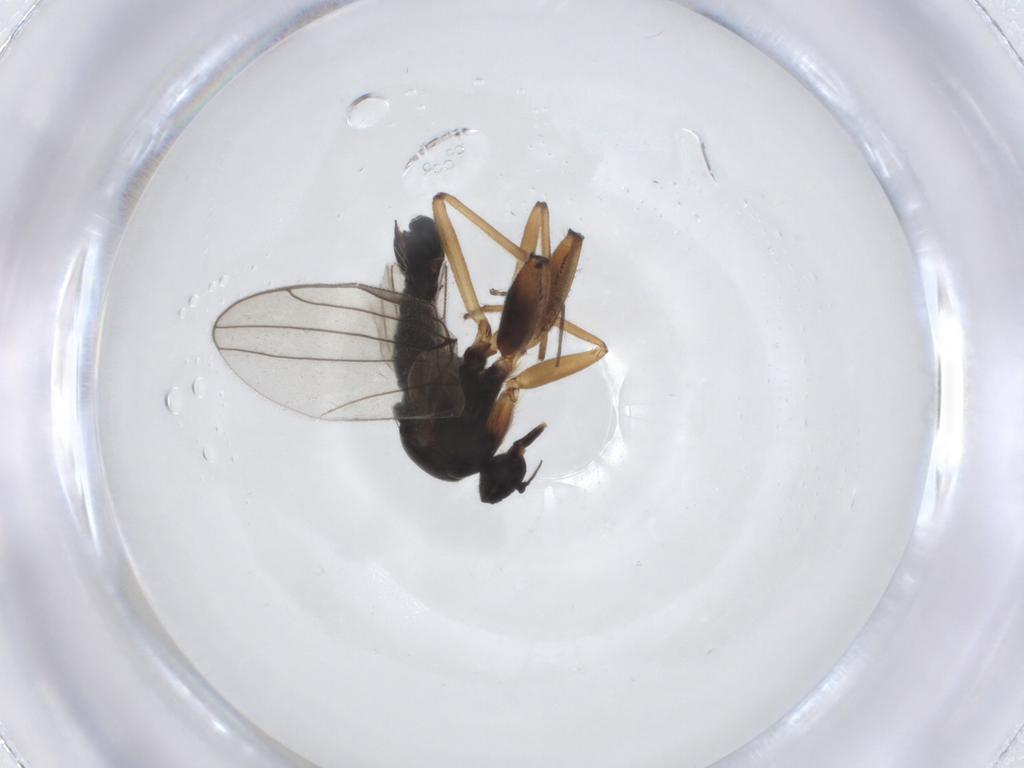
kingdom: Animalia
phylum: Arthropoda
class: Insecta
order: Diptera
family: Hybotidae
